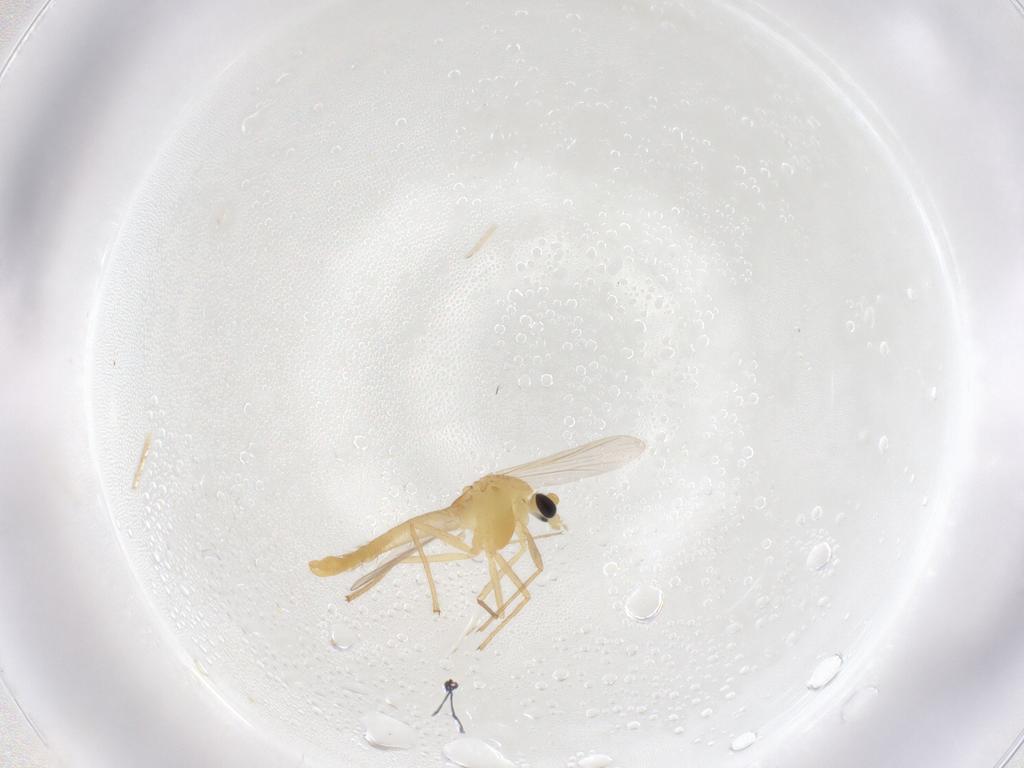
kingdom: Animalia
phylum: Arthropoda
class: Insecta
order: Diptera
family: Chironomidae
